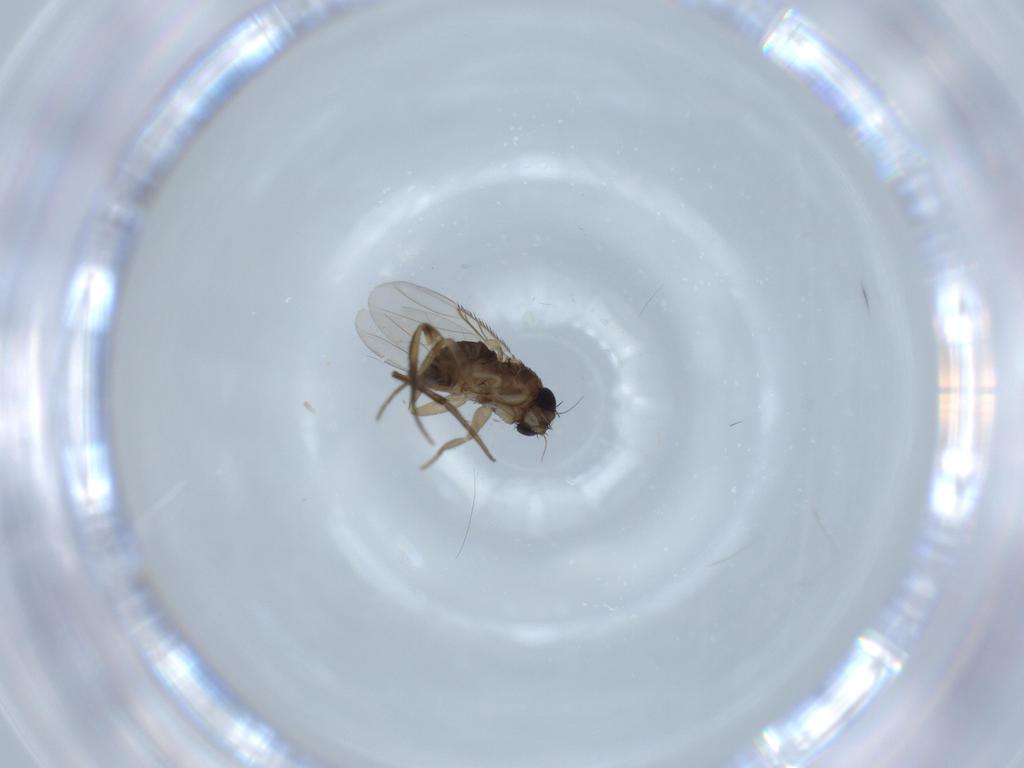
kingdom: Animalia
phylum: Arthropoda
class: Insecta
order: Diptera
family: Phoridae
